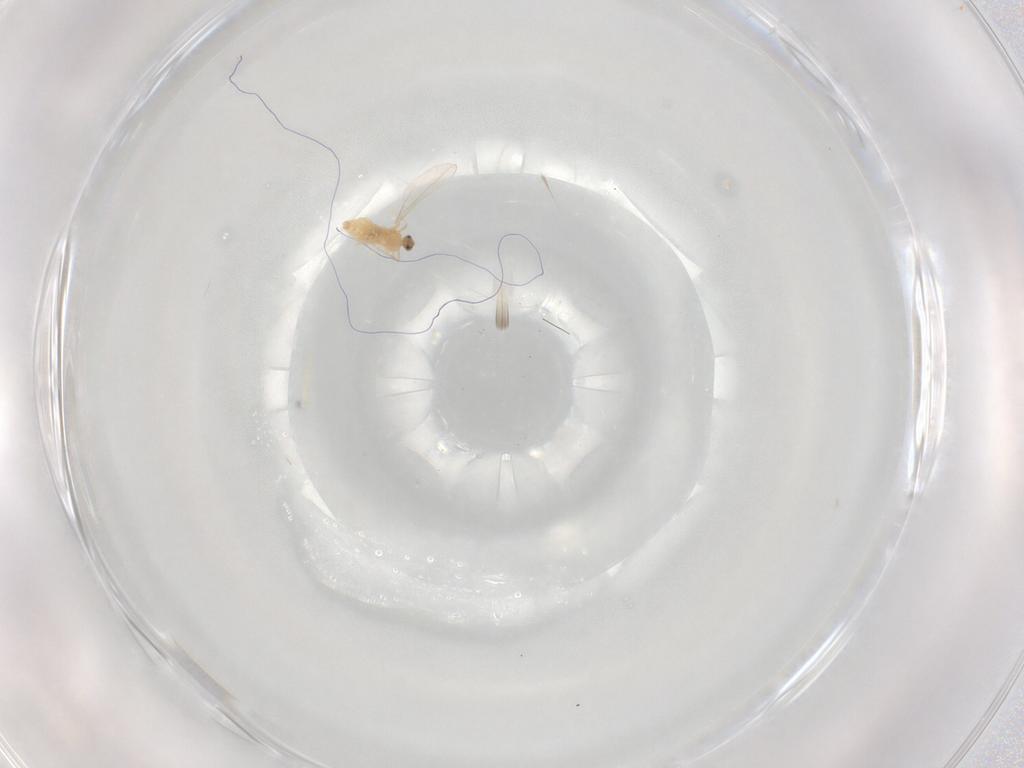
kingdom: Animalia
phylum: Arthropoda
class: Insecta
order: Diptera
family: Cecidomyiidae
